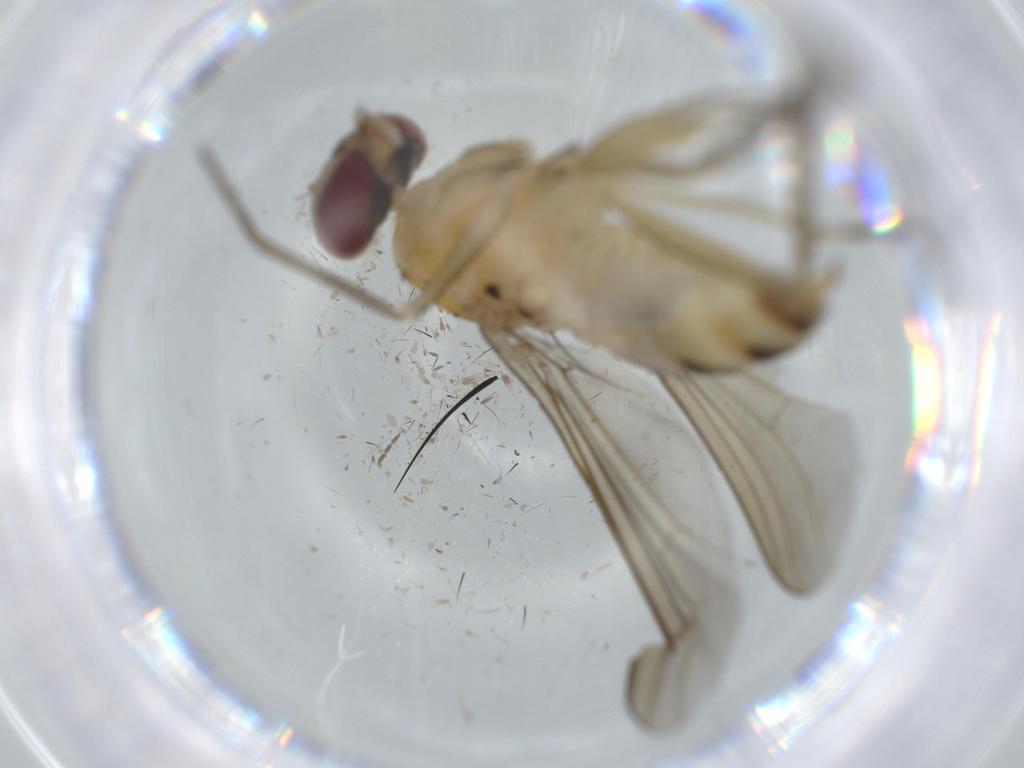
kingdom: Animalia
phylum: Arthropoda
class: Insecta
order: Diptera
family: Dolichopodidae
